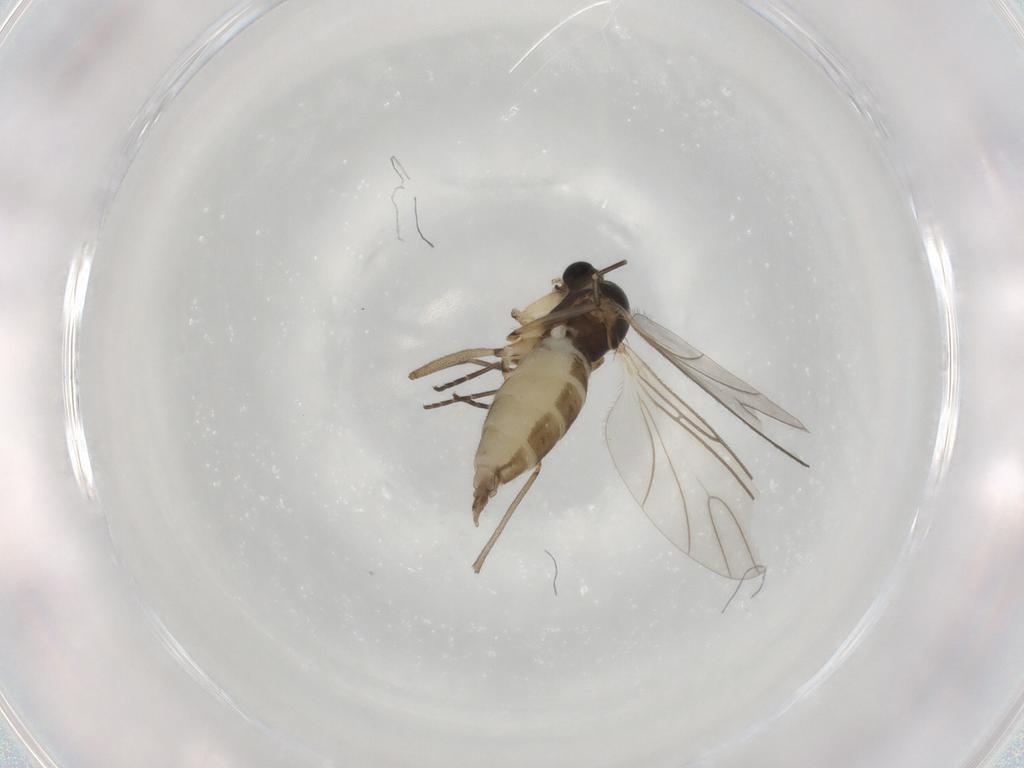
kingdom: Animalia
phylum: Arthropoda
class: Insecta
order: Diptera
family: Sciaridae
